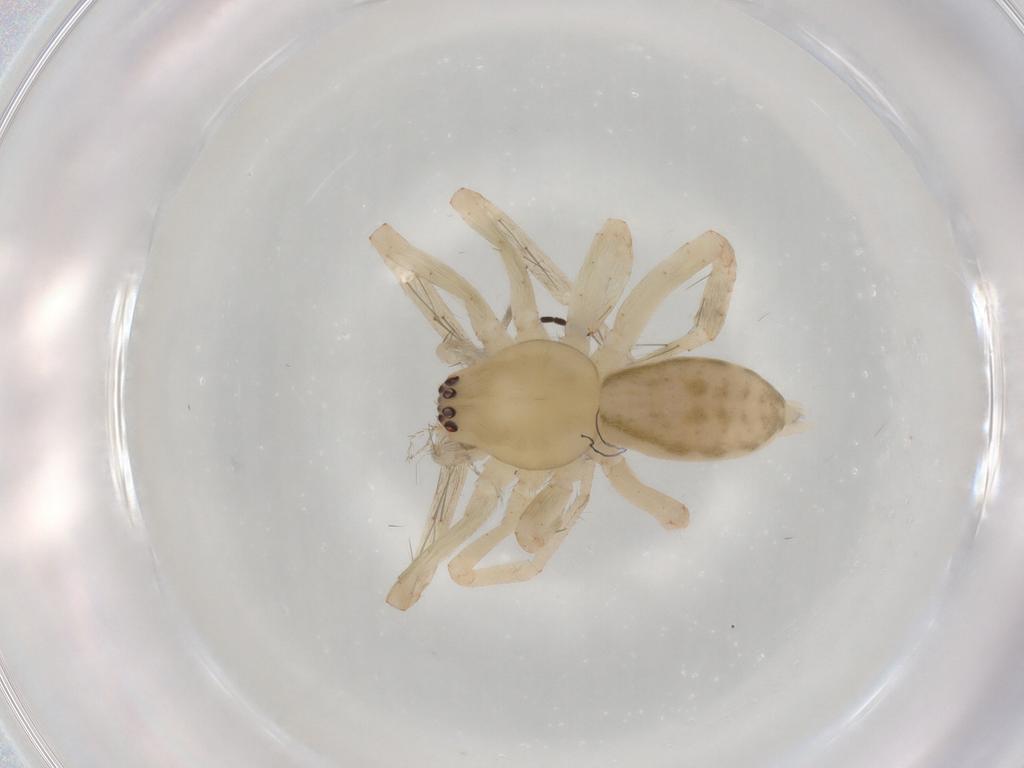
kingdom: Animalia
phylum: Arthropoda
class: Arachnida
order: Araneae
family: Anyphaenidae
